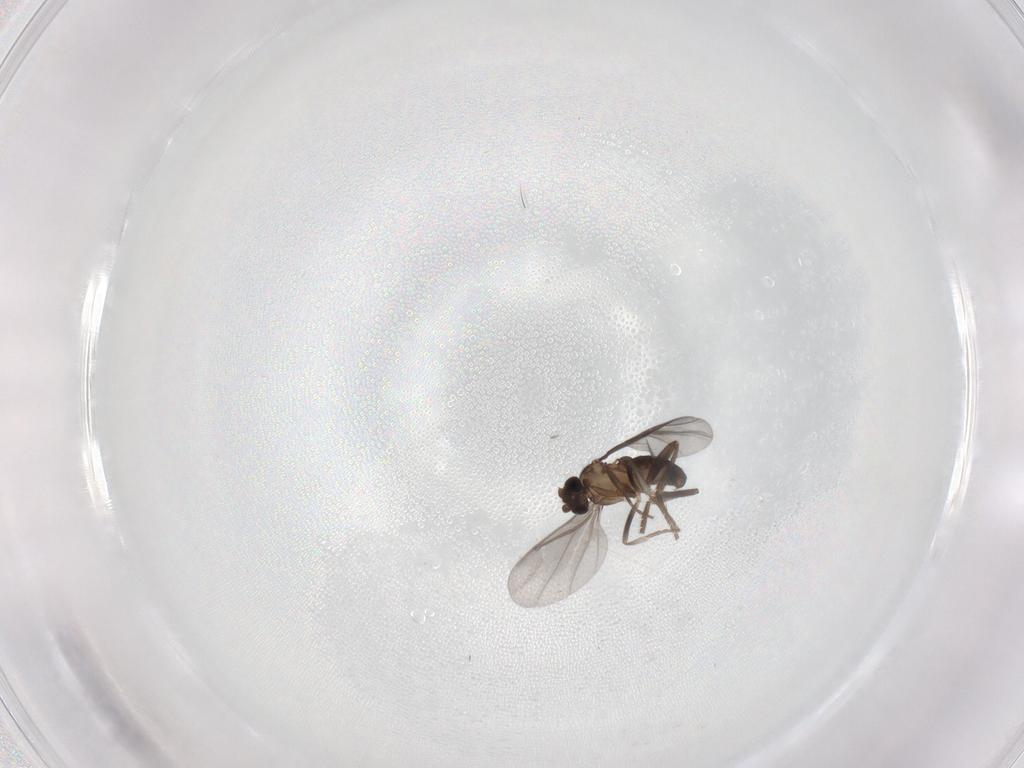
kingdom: Animalia
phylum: Arthropoda
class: Insecta
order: Diptera
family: Phoridae
